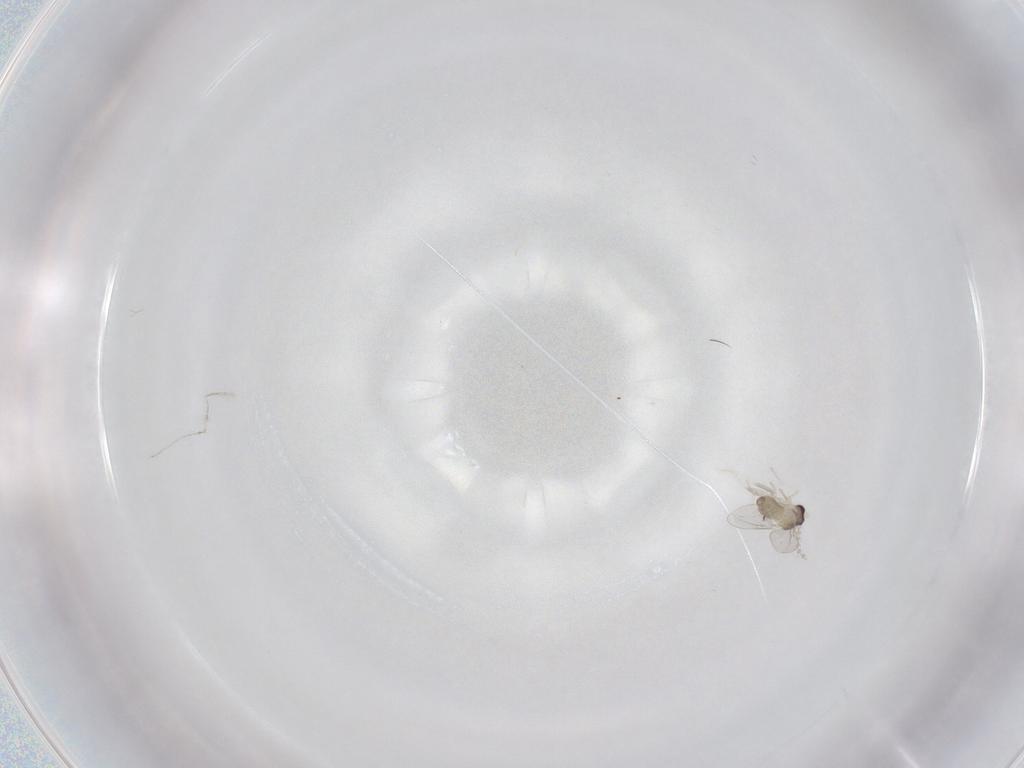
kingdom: Animalia
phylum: Arthropoda
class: Insecta
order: Diptera
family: Cecidomyiidae
